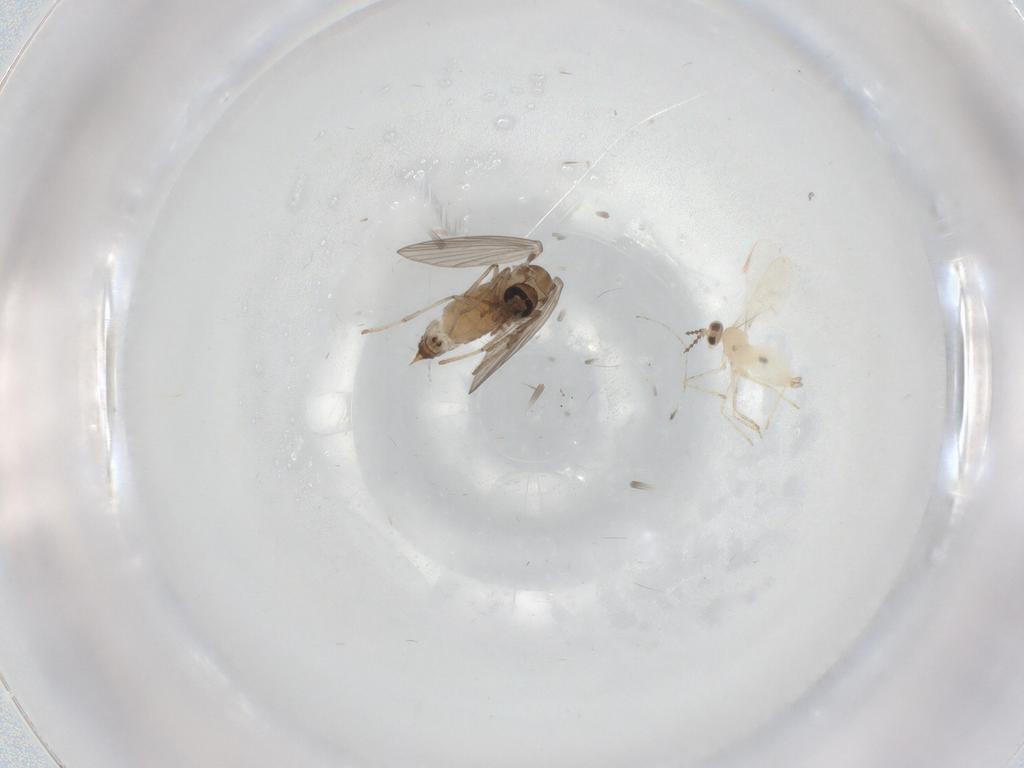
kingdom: Animalia
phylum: Arthropoda
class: Insecta
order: Diptera
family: Psychodidae
